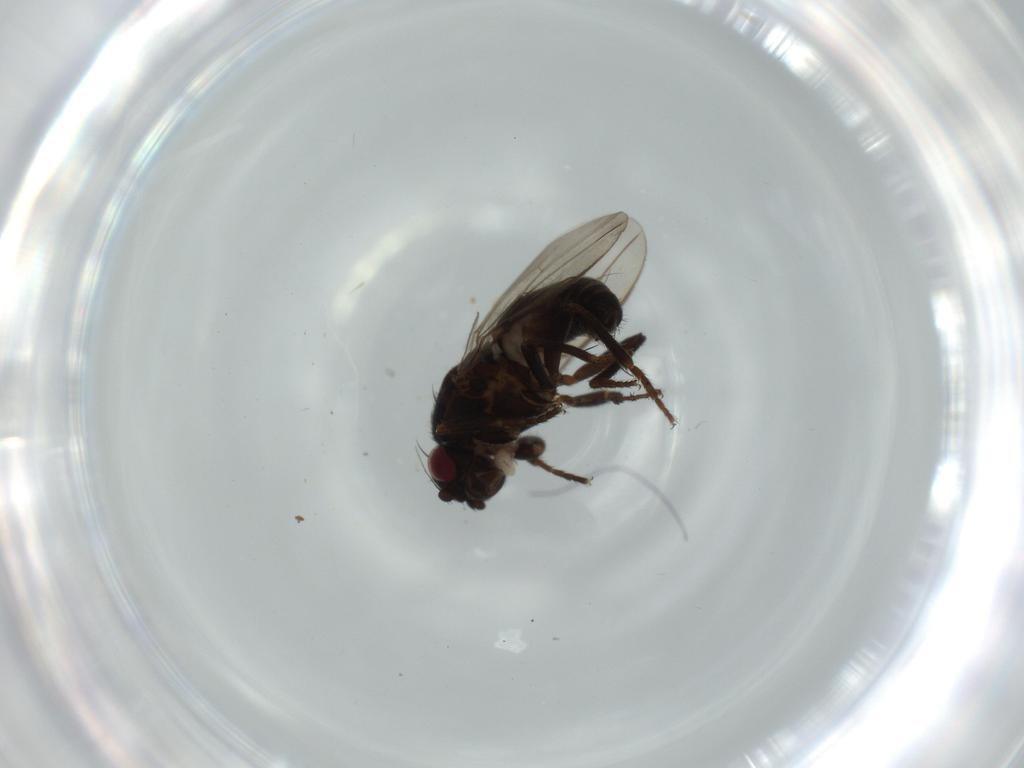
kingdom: Animalia
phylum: Arthropoda
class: Insecta
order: Diptera
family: Sphaeroceridae
